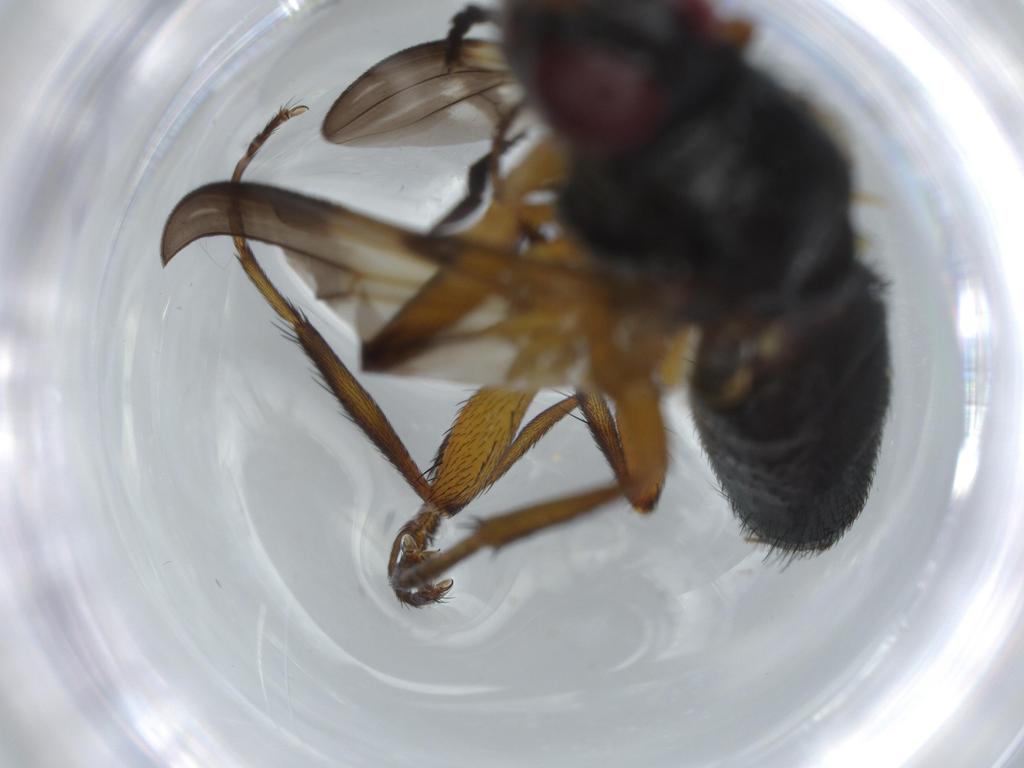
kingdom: Animalia
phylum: Arthropoda
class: Insecta
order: Diptera
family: Calliphoridae
